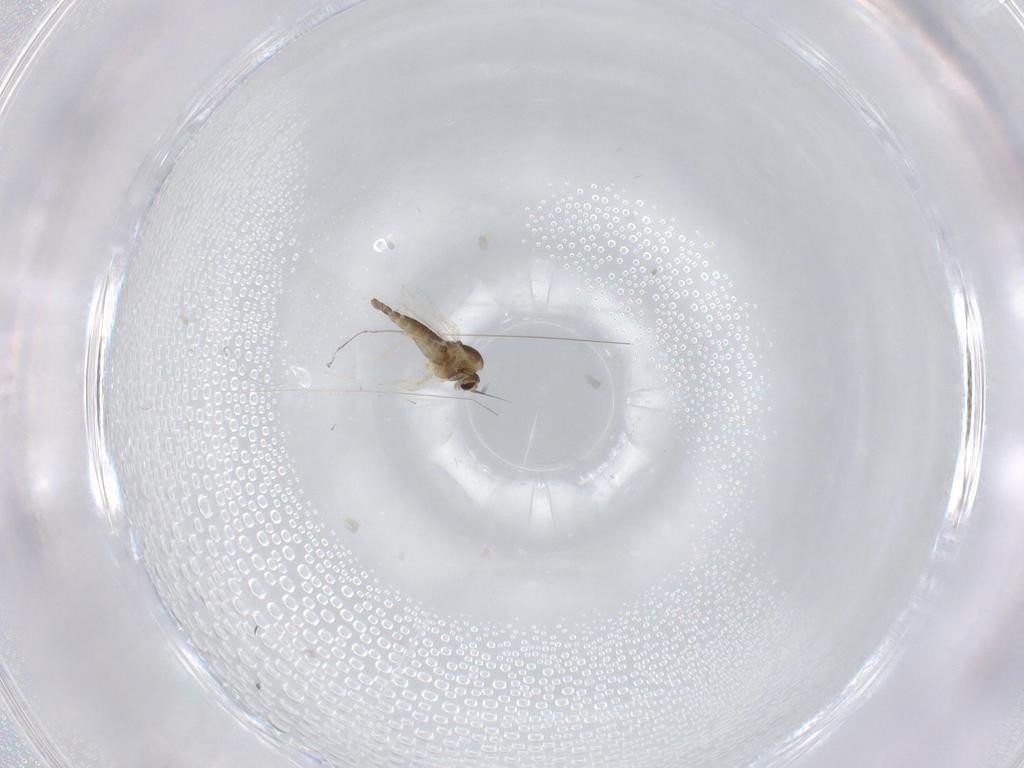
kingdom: Animalia
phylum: Arthropoda
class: Insecta
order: Diptera
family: Chironomidae
